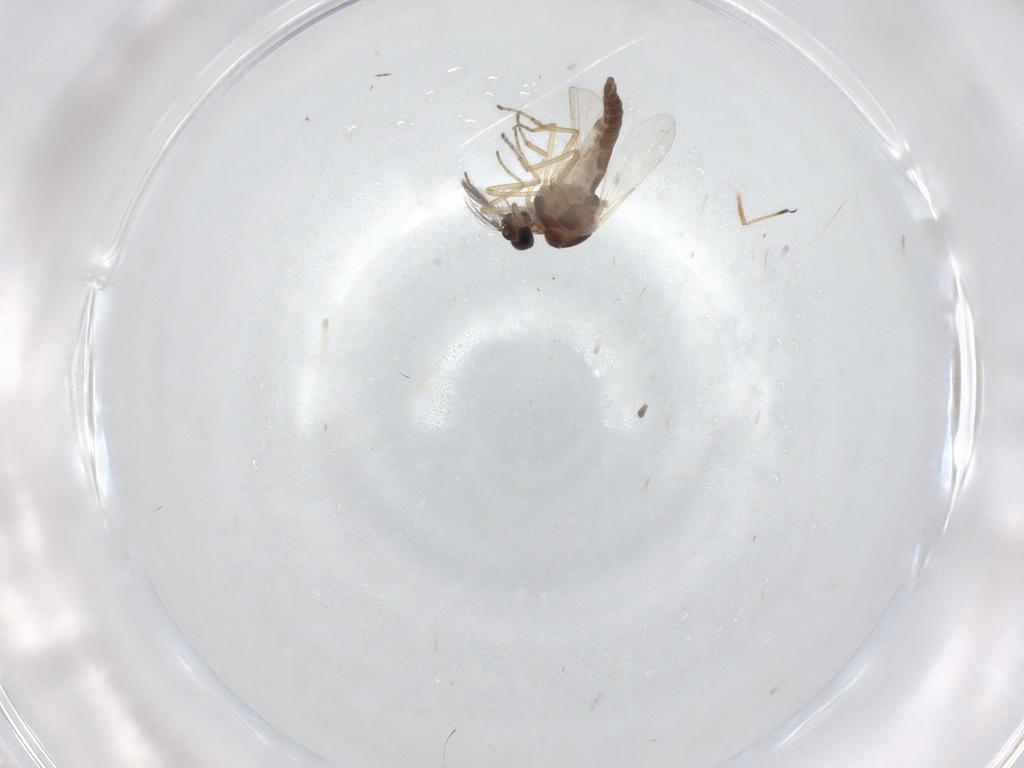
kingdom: Animalia
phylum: Arthropoda
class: Insecta
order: Diptera
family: Ceratopogonidae
